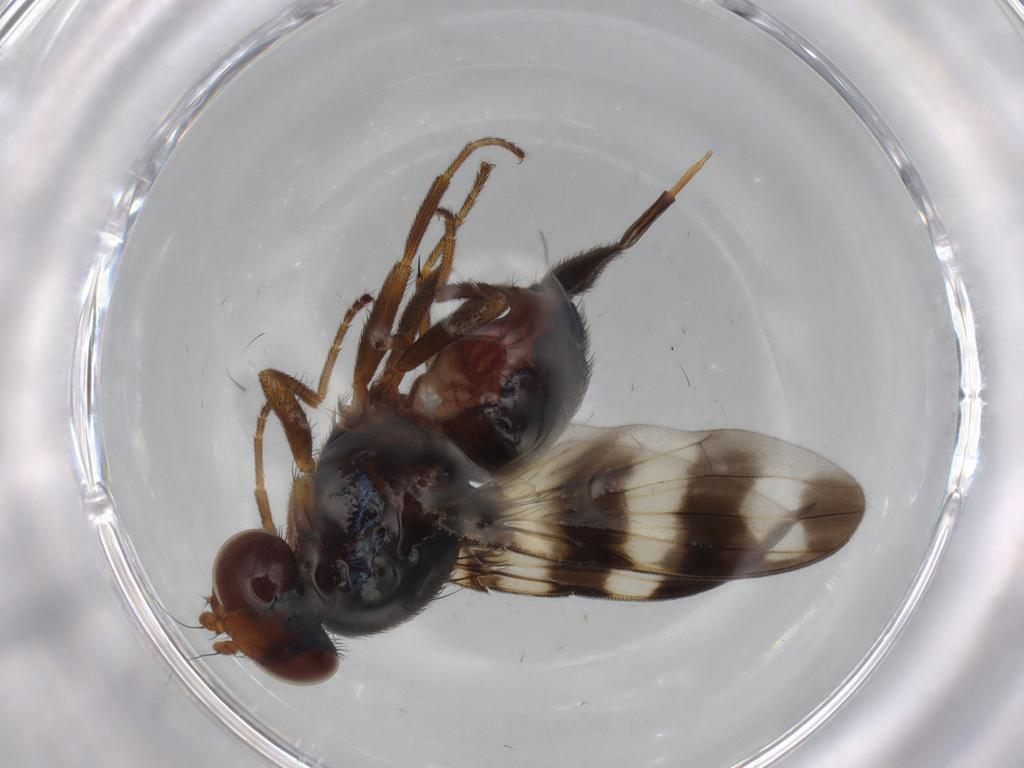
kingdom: Animalia
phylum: Arthropoda
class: Insecta
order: Diptera
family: Ulidiidae
